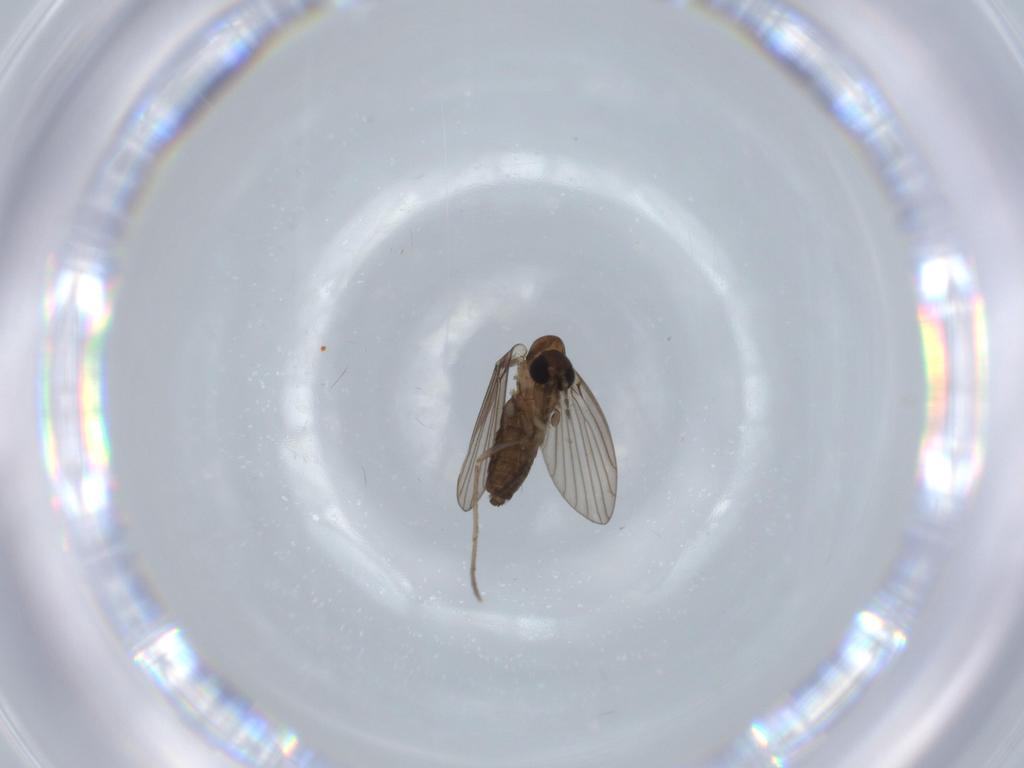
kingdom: Animalia
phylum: Arthropoda
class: Insecta
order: Diptera
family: Psychodidae
